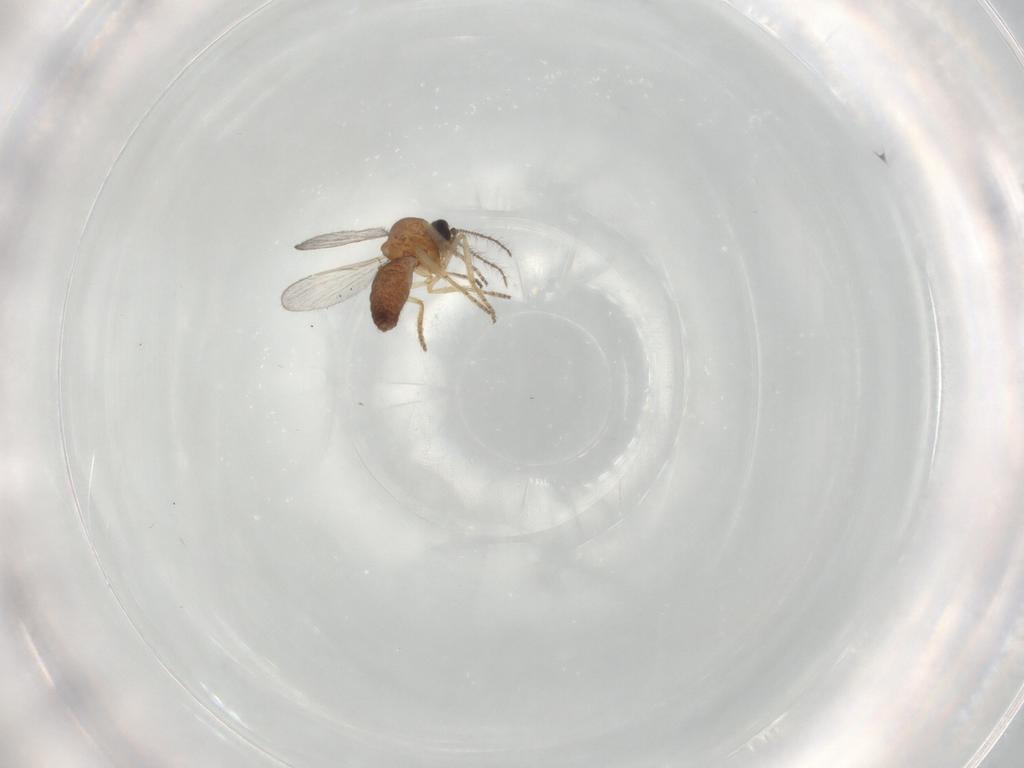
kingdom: Animalia
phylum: Arthropoda
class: Insecta
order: Diptera
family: Ceratopogonidae
